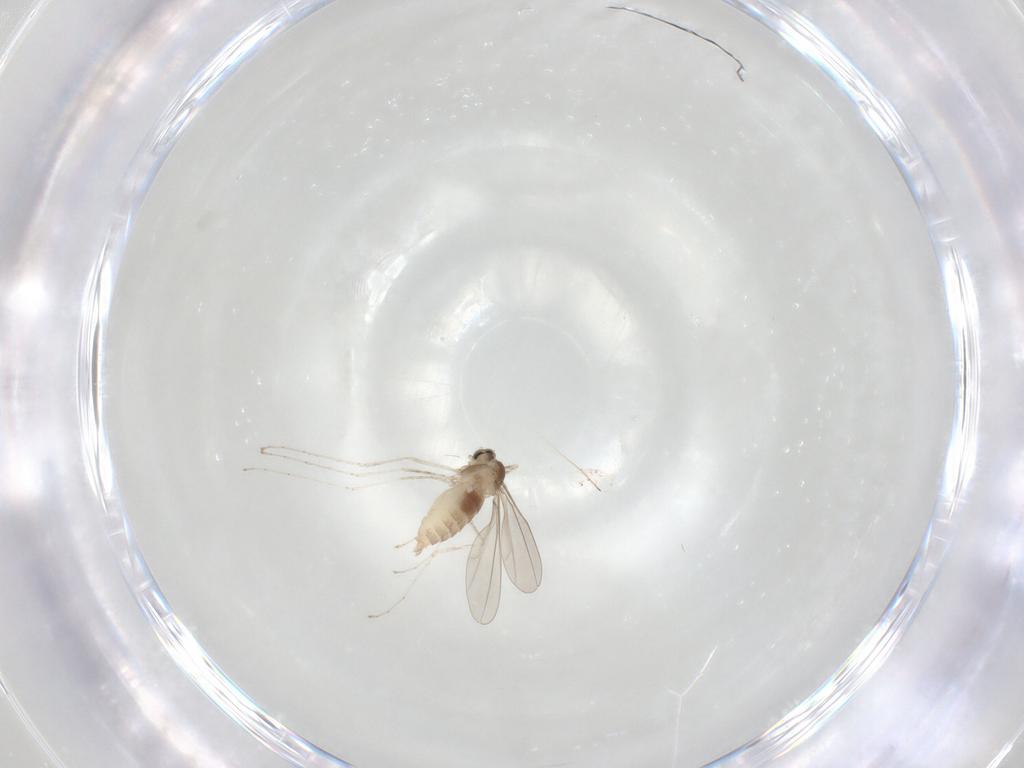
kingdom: Animalia
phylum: Arthropoda
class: Insecta
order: Diptera
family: Cecidomyiidae
